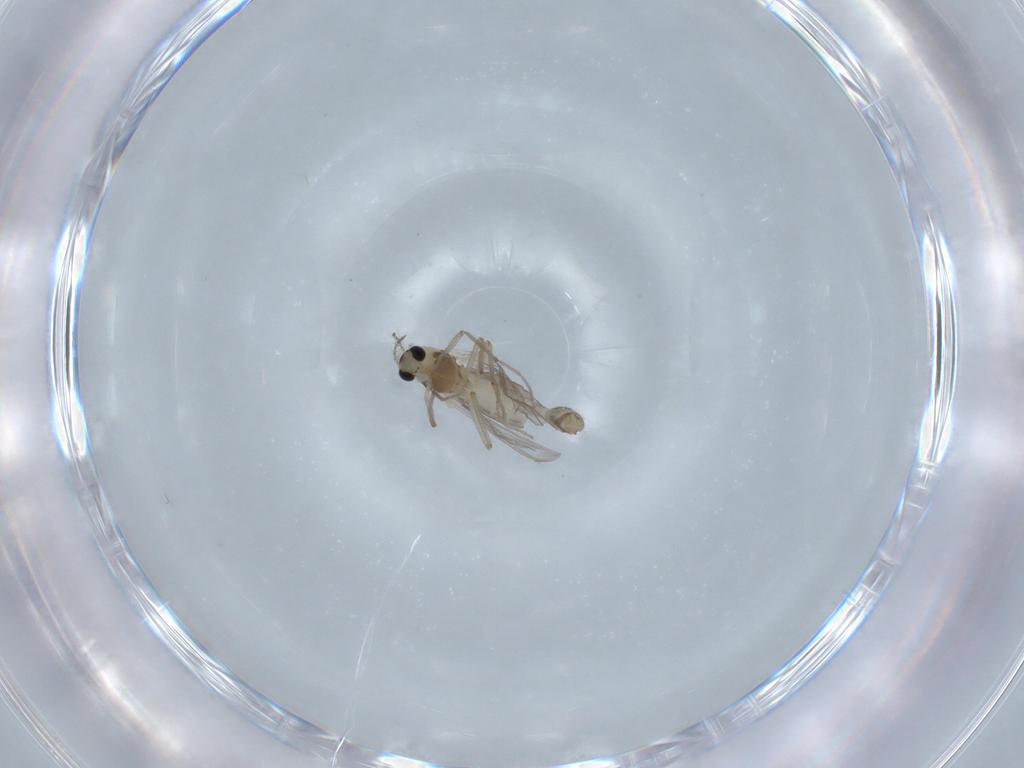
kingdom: Animalia
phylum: Arthropoda
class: Insecta
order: Diptera
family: Chironomidae
